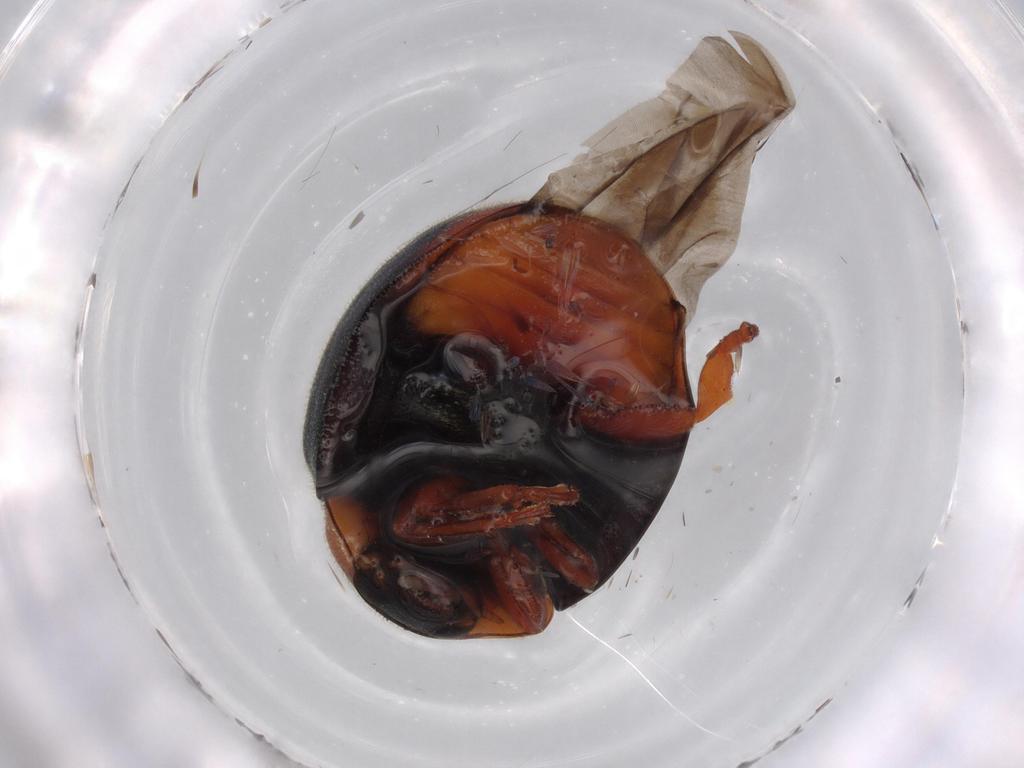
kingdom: Animalia
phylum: Arthropoda
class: Insecta
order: Coleoptera
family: Coccinellidae
